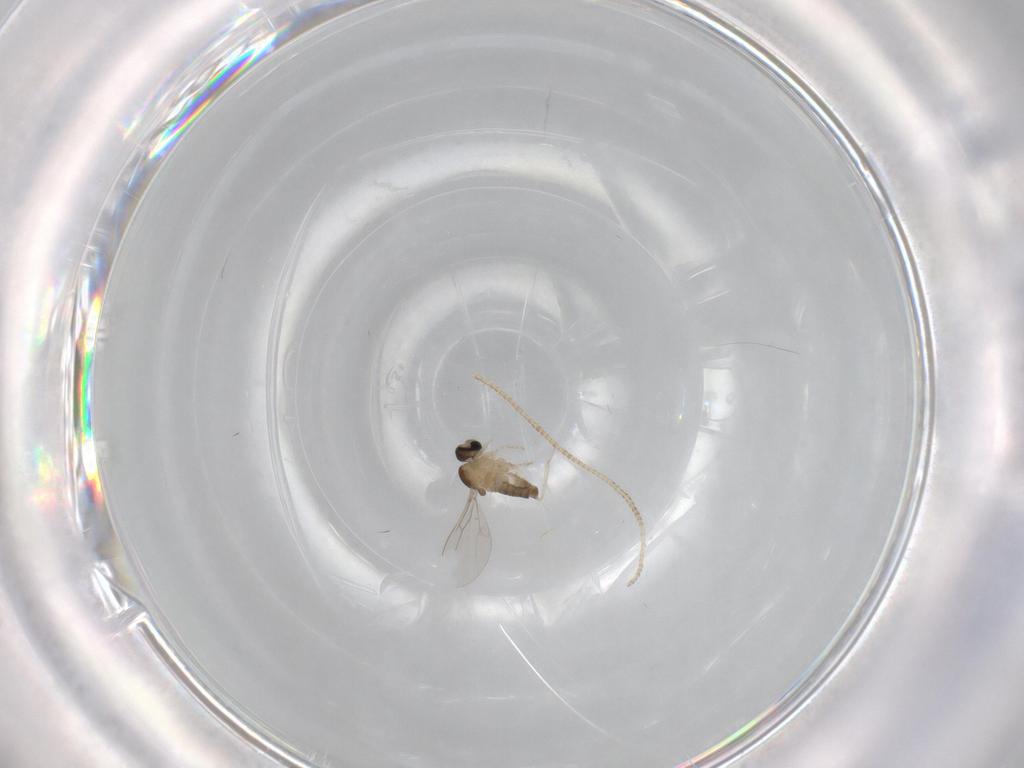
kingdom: Animalia
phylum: Arthropoda
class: Insecta
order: Diptera
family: Cecidomyiidae
